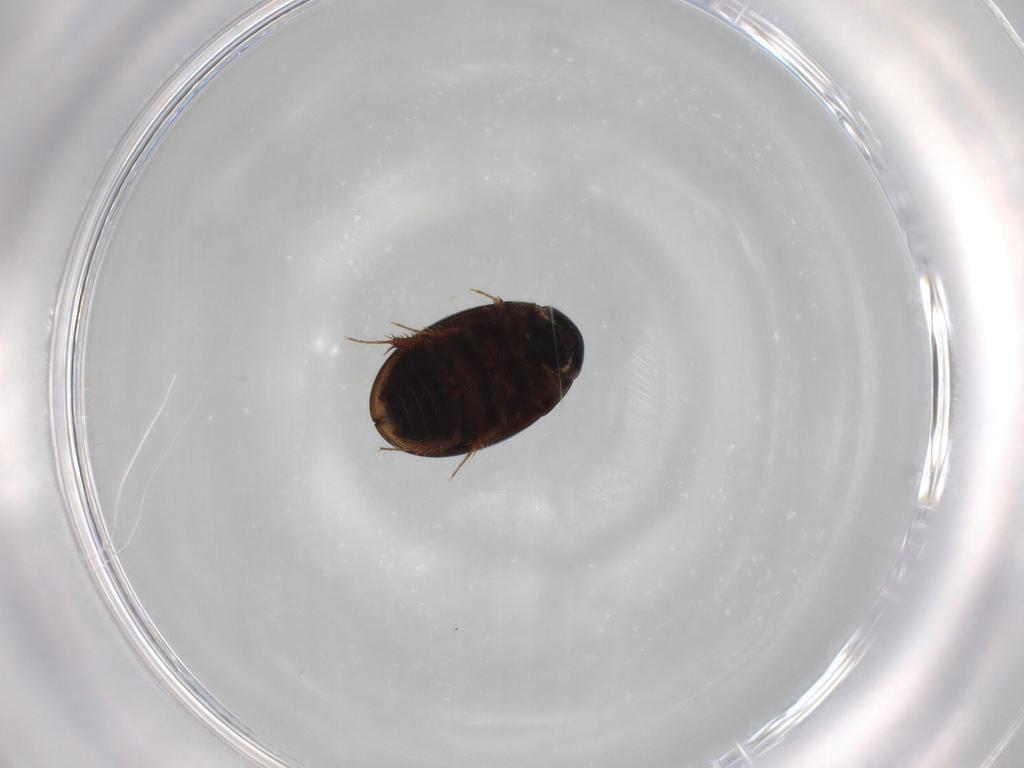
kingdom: Animalia
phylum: Arthropoda
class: Insecta
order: Coleoptera
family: Hydrophilidae
